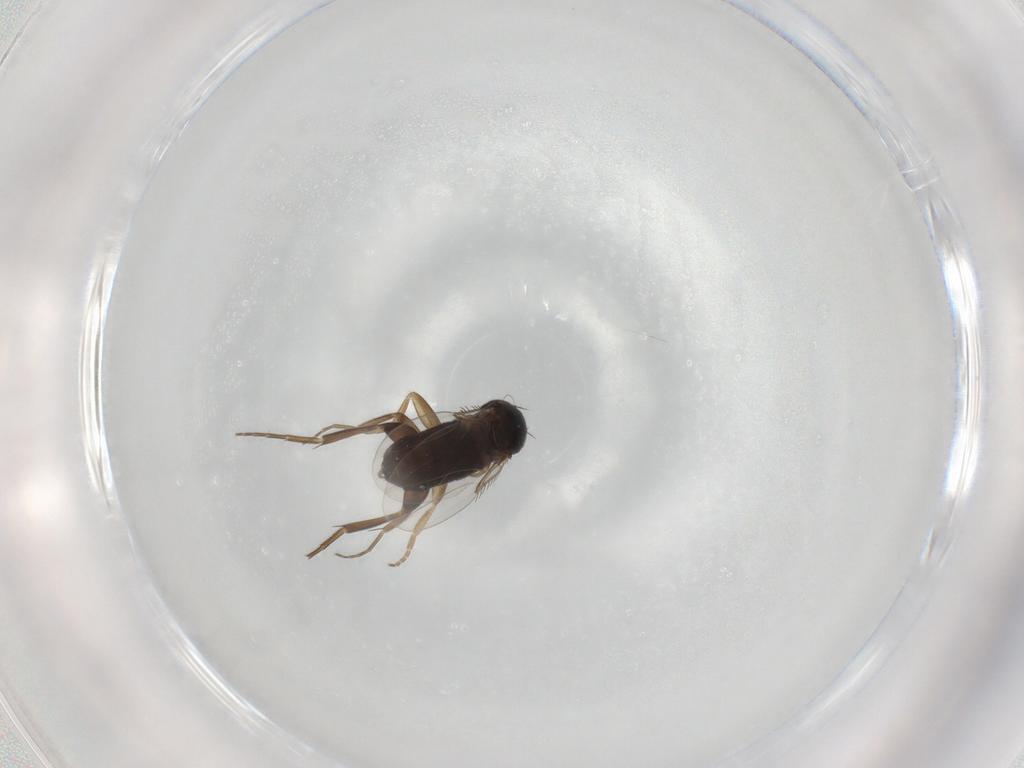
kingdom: Animalia
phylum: Arthropoda
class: Insecta
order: Diptera
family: Phoridae
